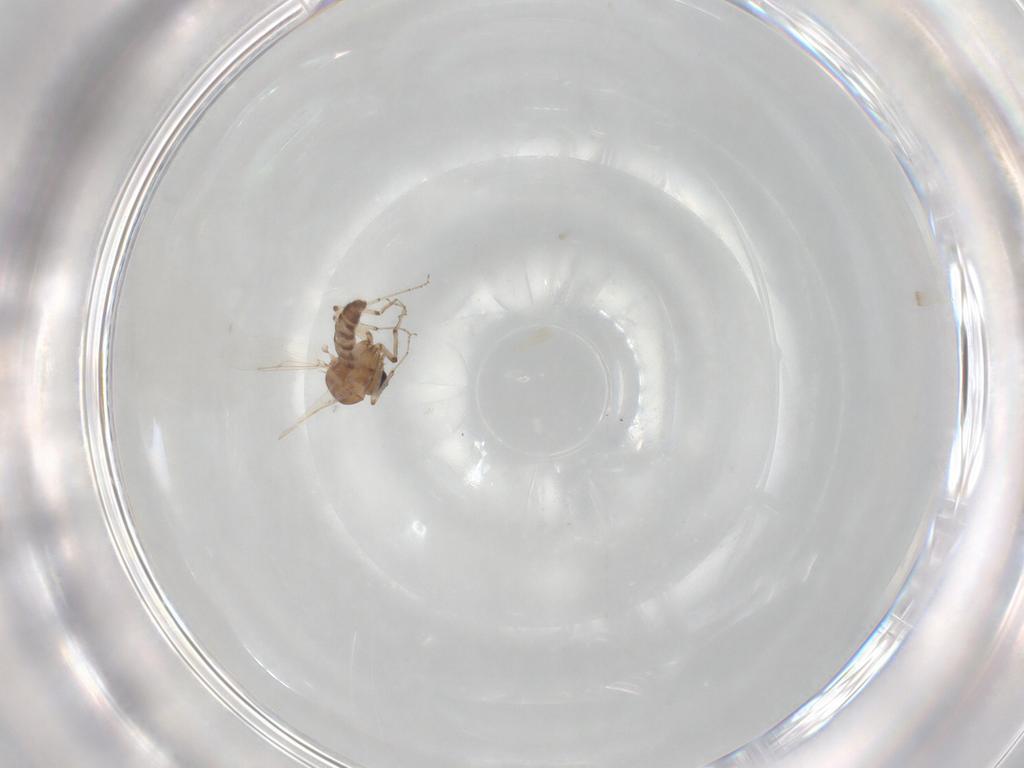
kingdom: Animalia
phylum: Arthropoda
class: Insecta
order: Diptera
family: Ceratopogonidae
